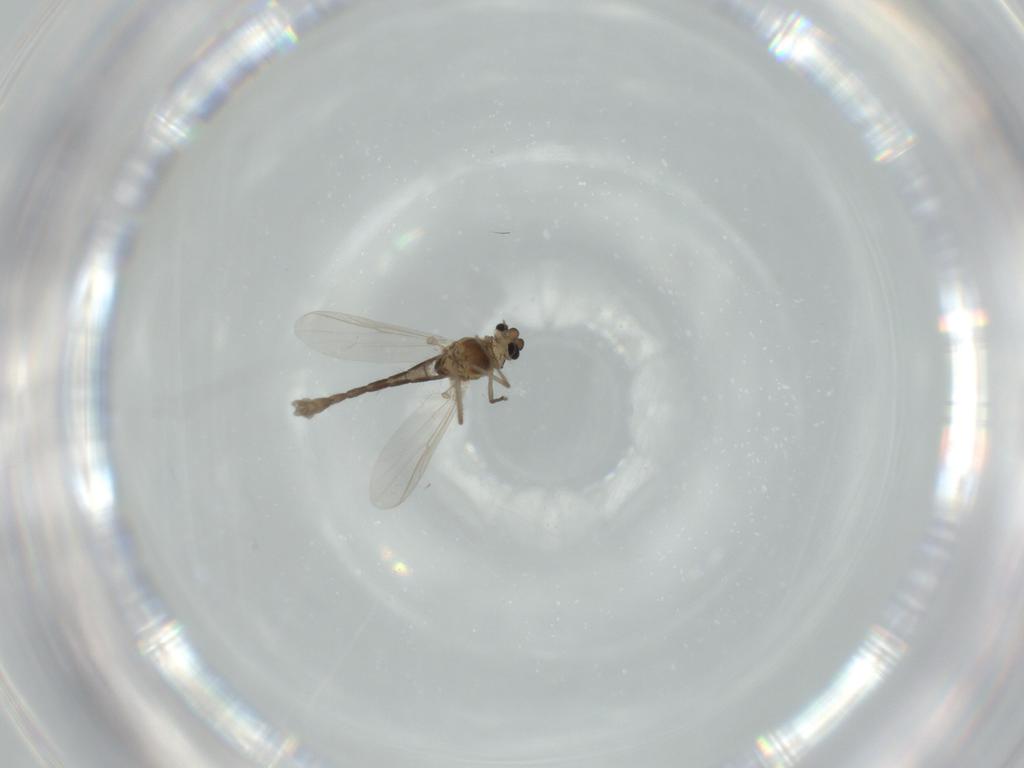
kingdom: Animalia
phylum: Arthropoda
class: Insecta
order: Diptera
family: Chironomidae
